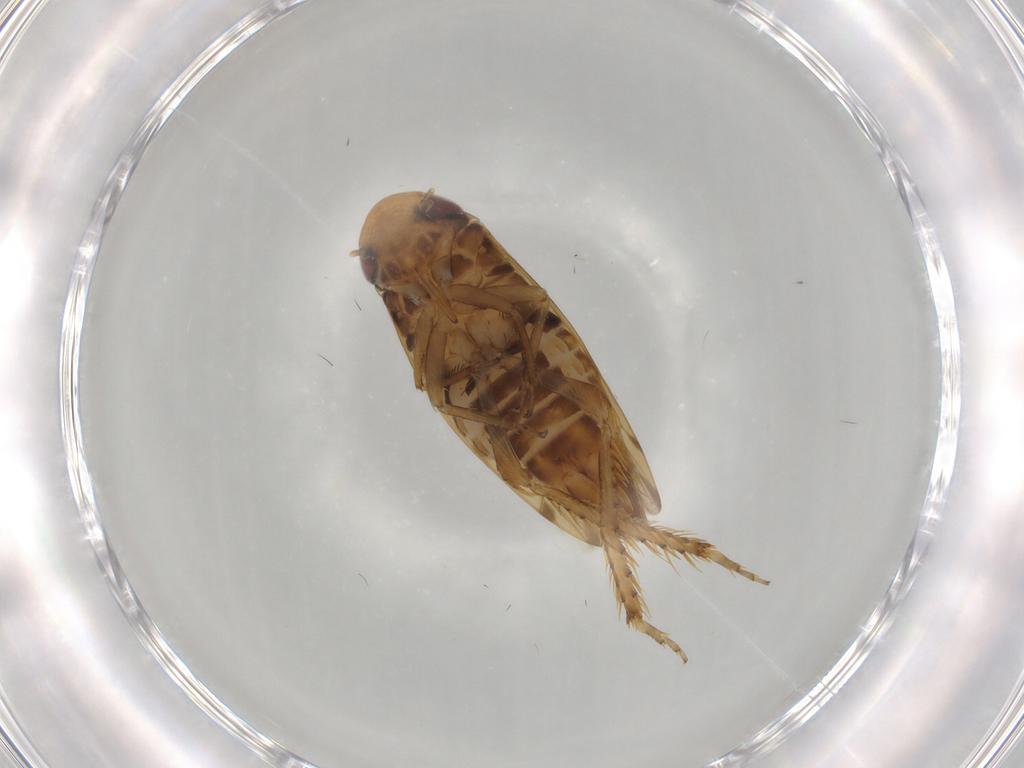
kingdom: Animalia
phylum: Arthropoda
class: Insecta
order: Hemiptera
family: Cicadellidae
